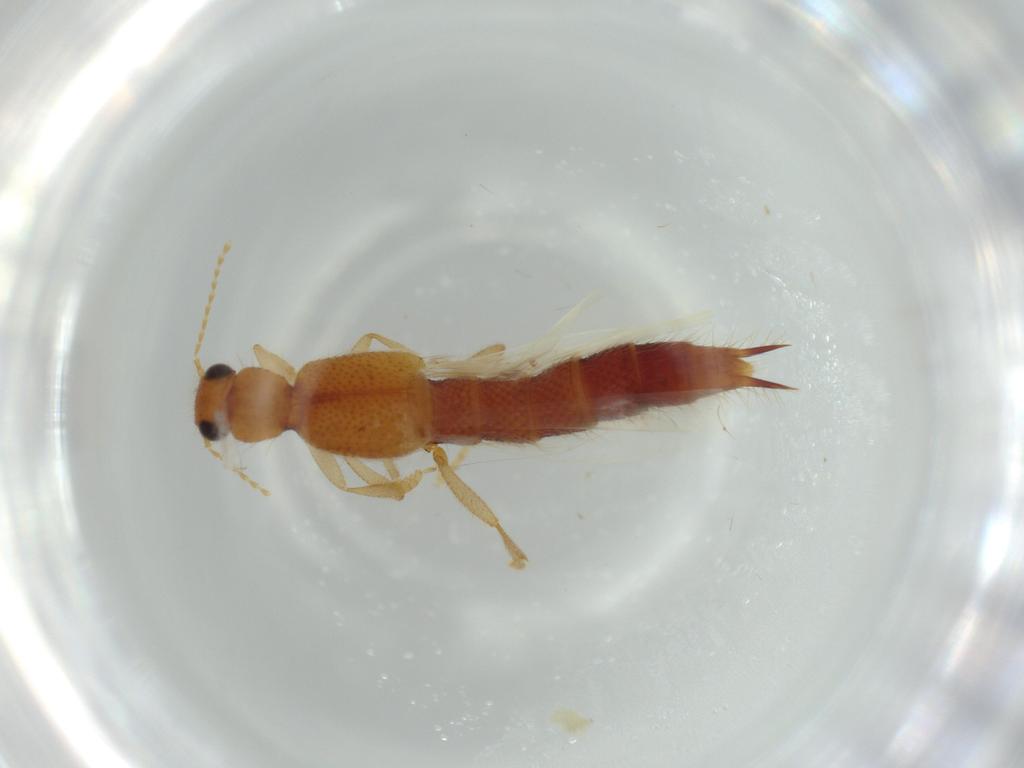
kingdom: Animalia
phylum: Arthropoda
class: Insecta
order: Coleoptera
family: Staphylinidae
